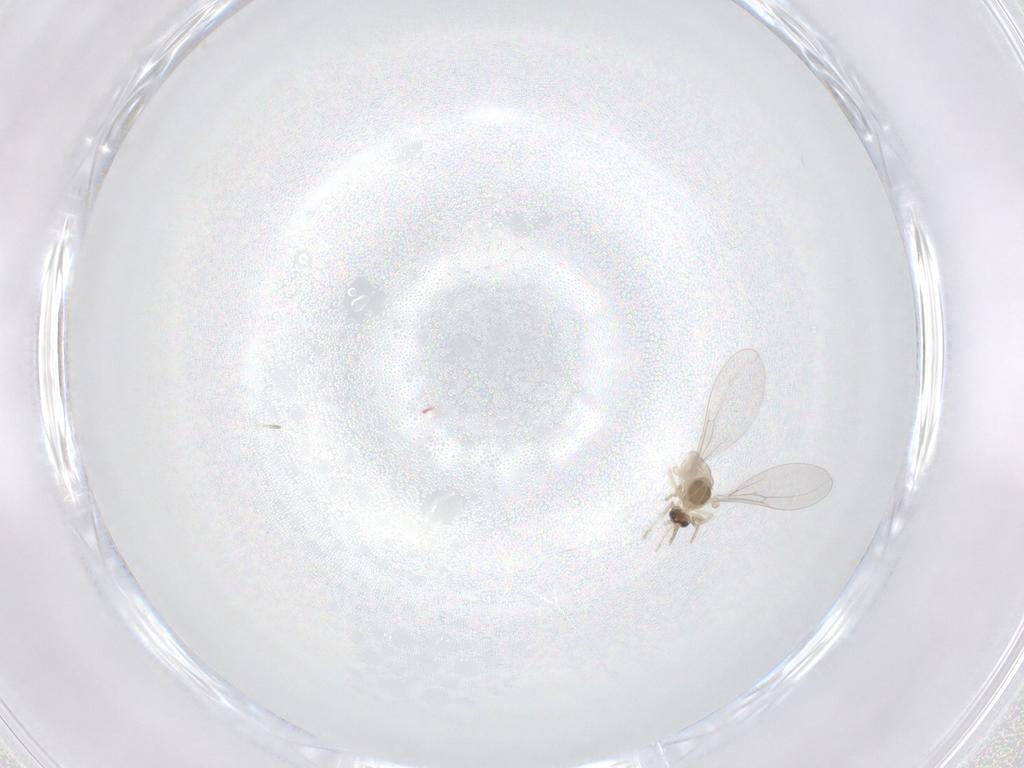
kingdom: Animalia
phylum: Arthropoda
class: Insecta
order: Diptera
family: Cecidomyiidae
